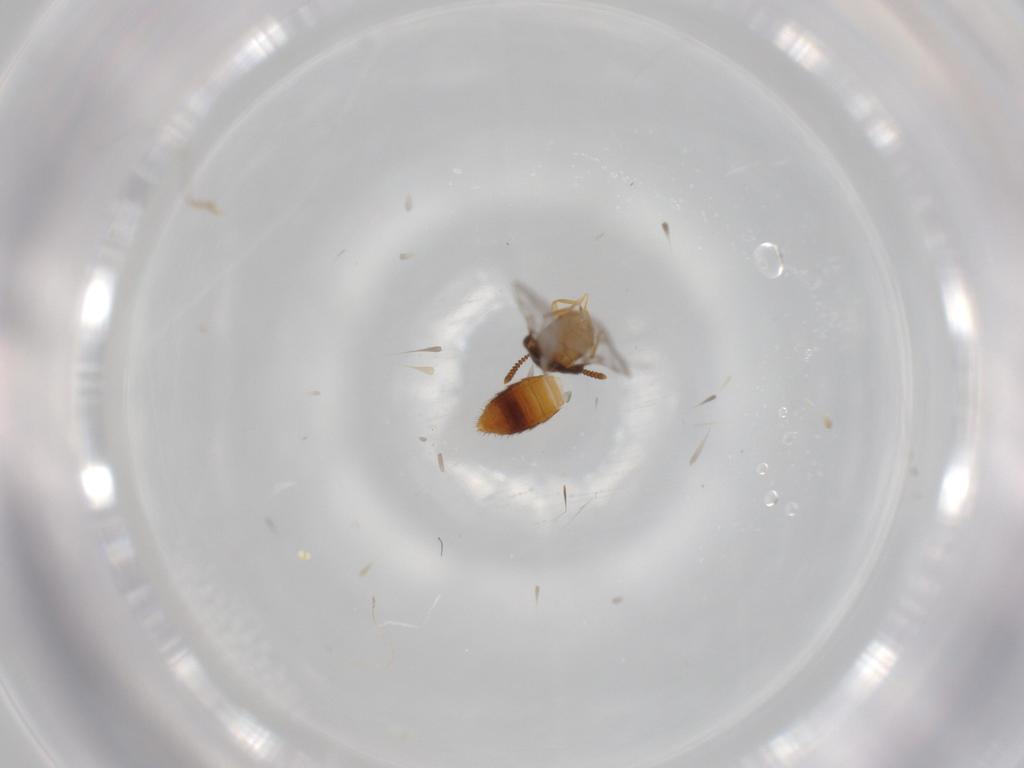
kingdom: Animalia
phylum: Arthropoda
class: Insecta
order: Coleoptera
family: Staphylinidae
